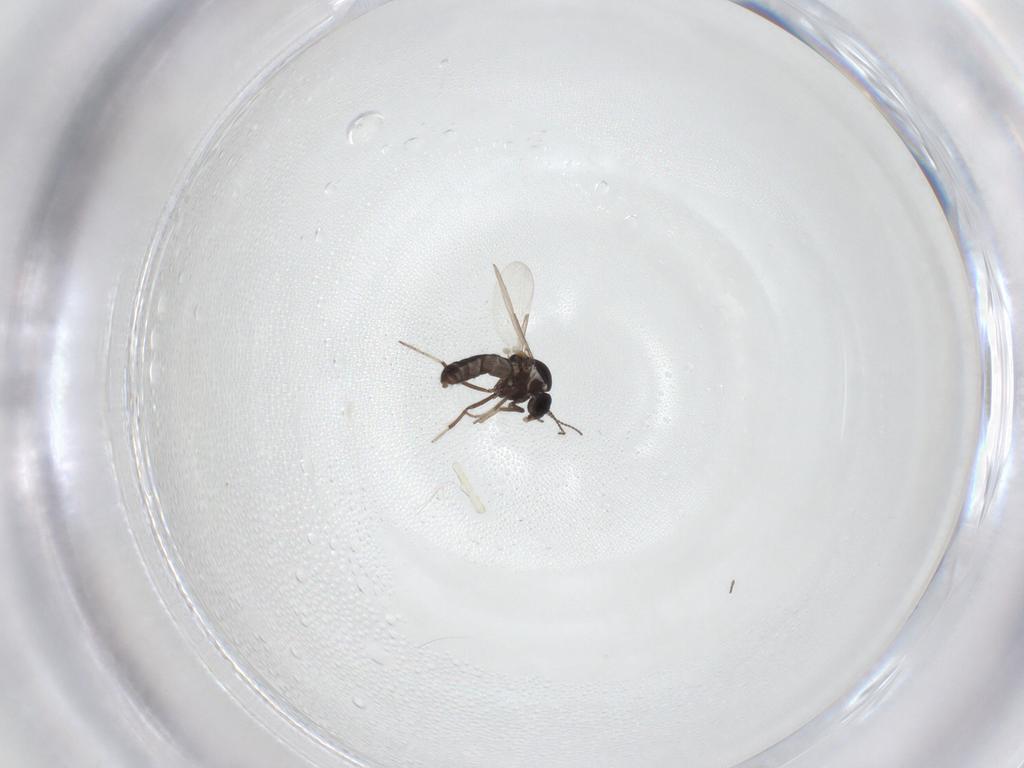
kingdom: Animalia
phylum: Arthropoda
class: Insecta
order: Diptera
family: Ceratopogonidae
